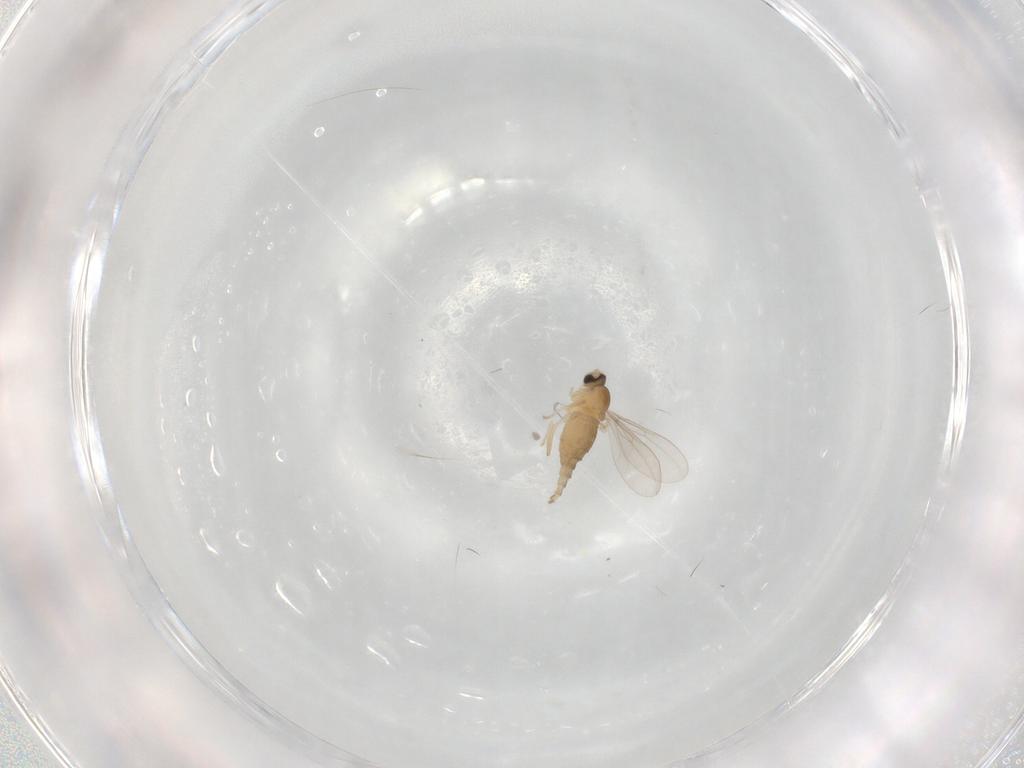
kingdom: Animalia
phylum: Arthropoda
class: Insecta
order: Diptera
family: Cecidomyiidae
